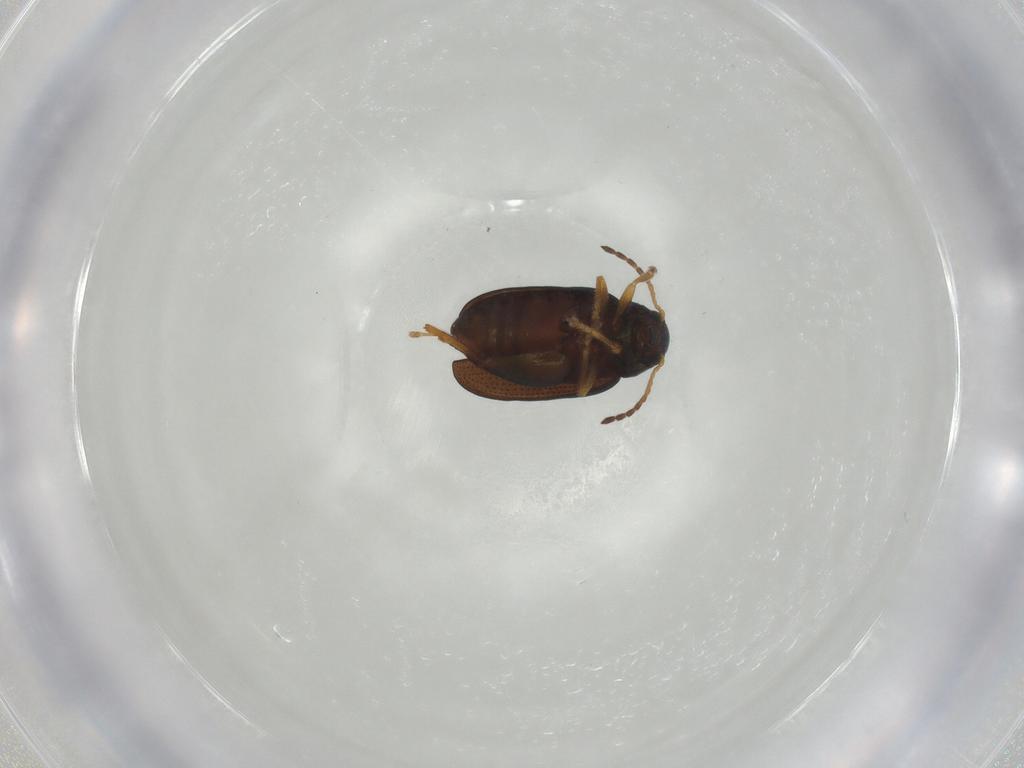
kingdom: Animalia
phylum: Arthropoda
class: Insecta
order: Coleoptera
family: Chrysomelidae
